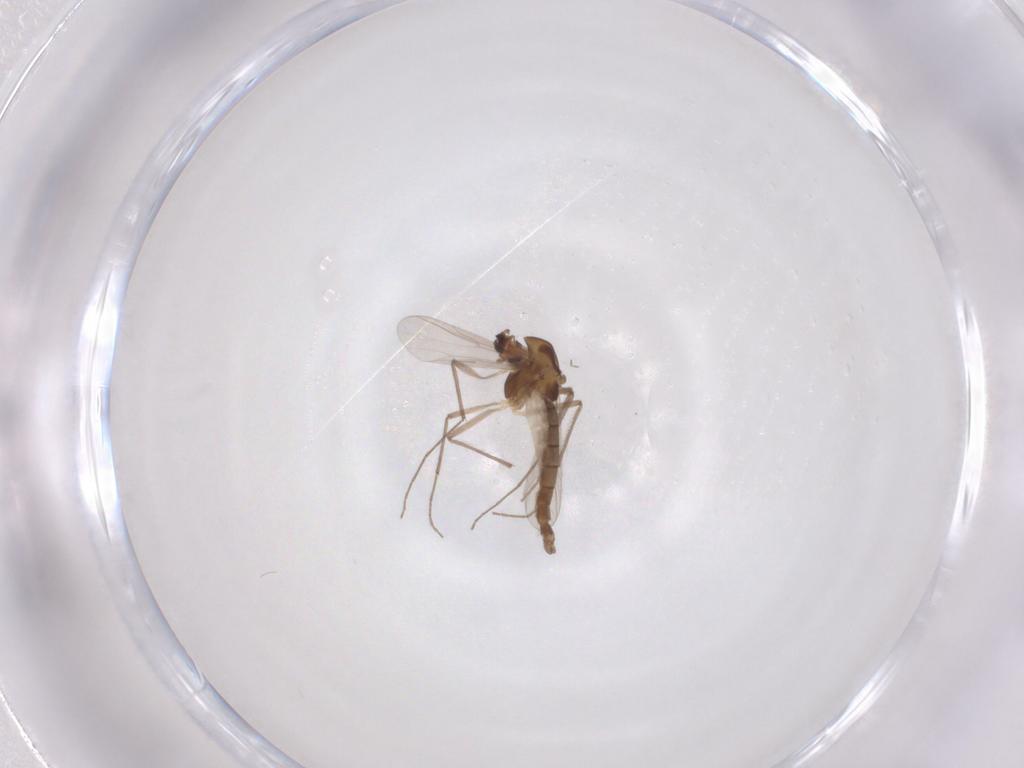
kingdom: Animalia
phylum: Arthropoda
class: Insecta
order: Diptera
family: Chironomidae
